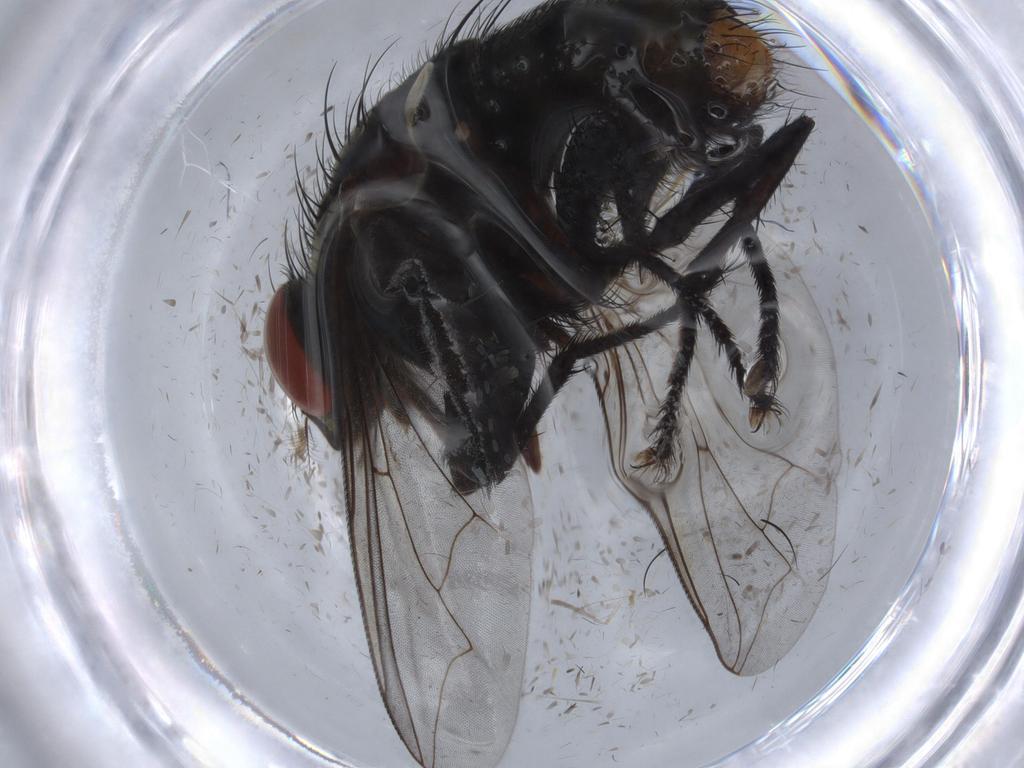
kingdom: Animalia
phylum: Arthropoda
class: Insecta
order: Diptera
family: Sarcophagidae
